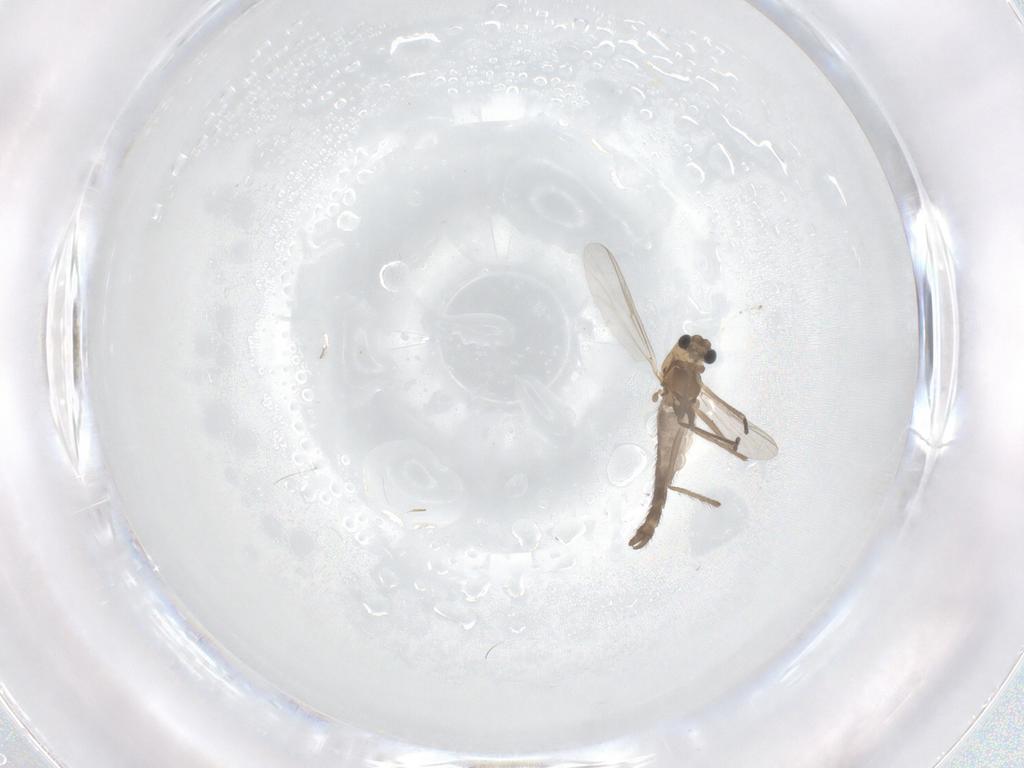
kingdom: Animalia
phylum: Arthropoda
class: Insecta
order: Diptera
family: Chironomidae
